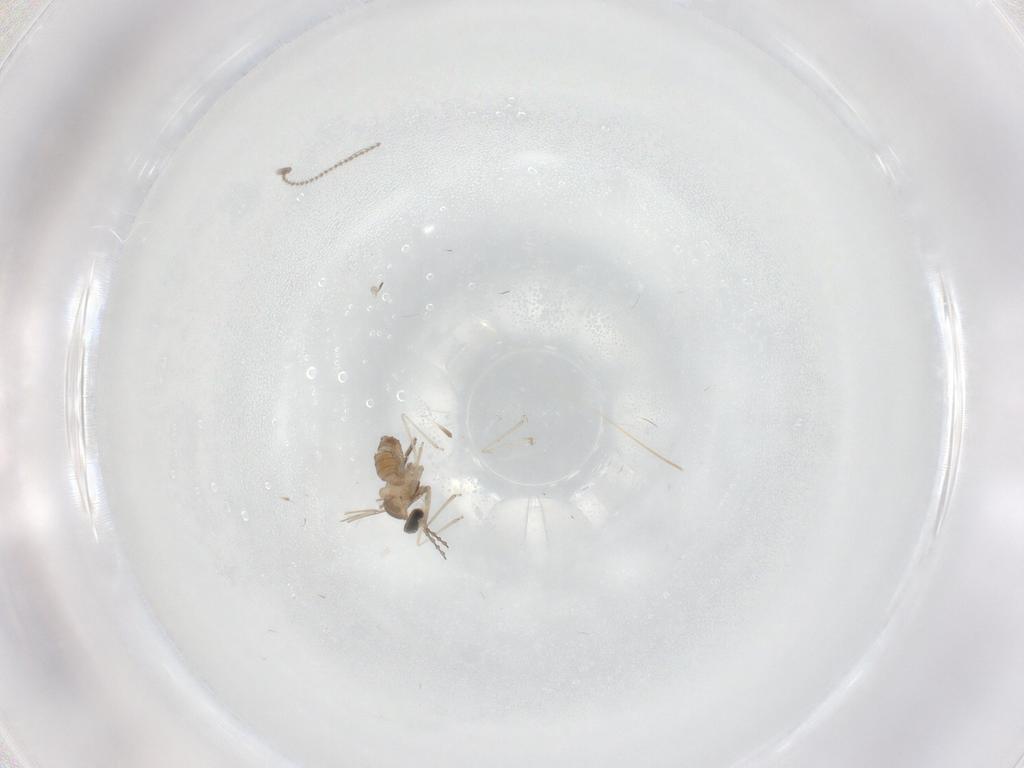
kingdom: Animalia
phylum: Arthropoda
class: Insecta
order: Diptera
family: Cecidomyiidae
